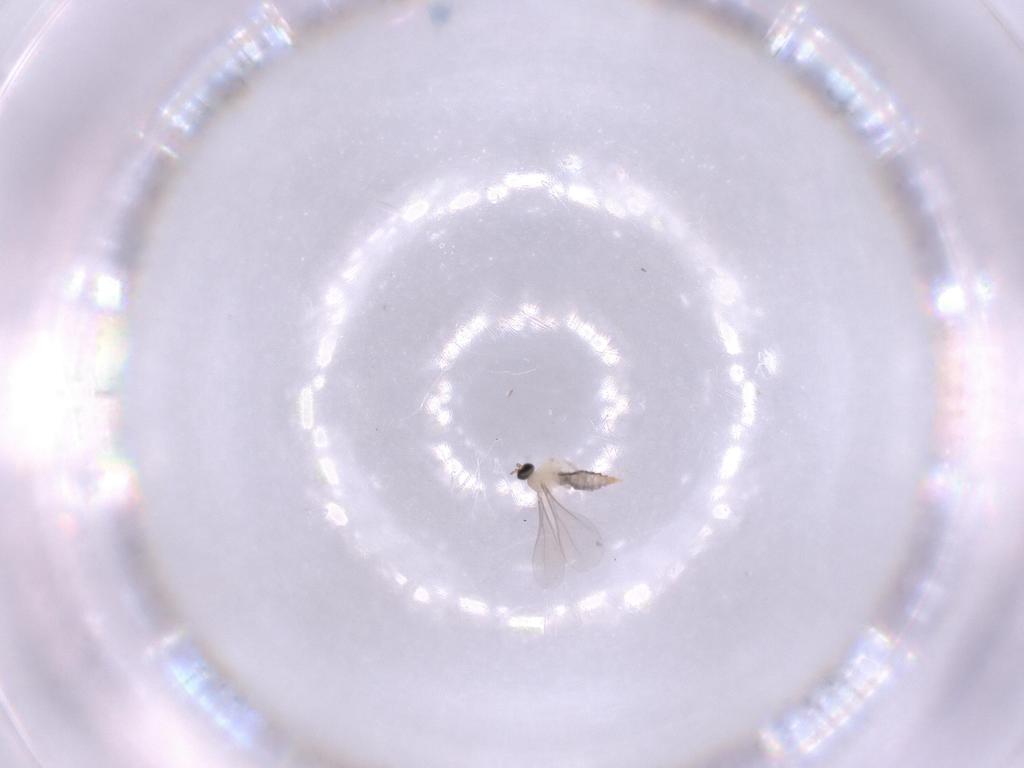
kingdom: Animalia
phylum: Arthropoda
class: Insecta
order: Diptera
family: Cecidomyiidae
